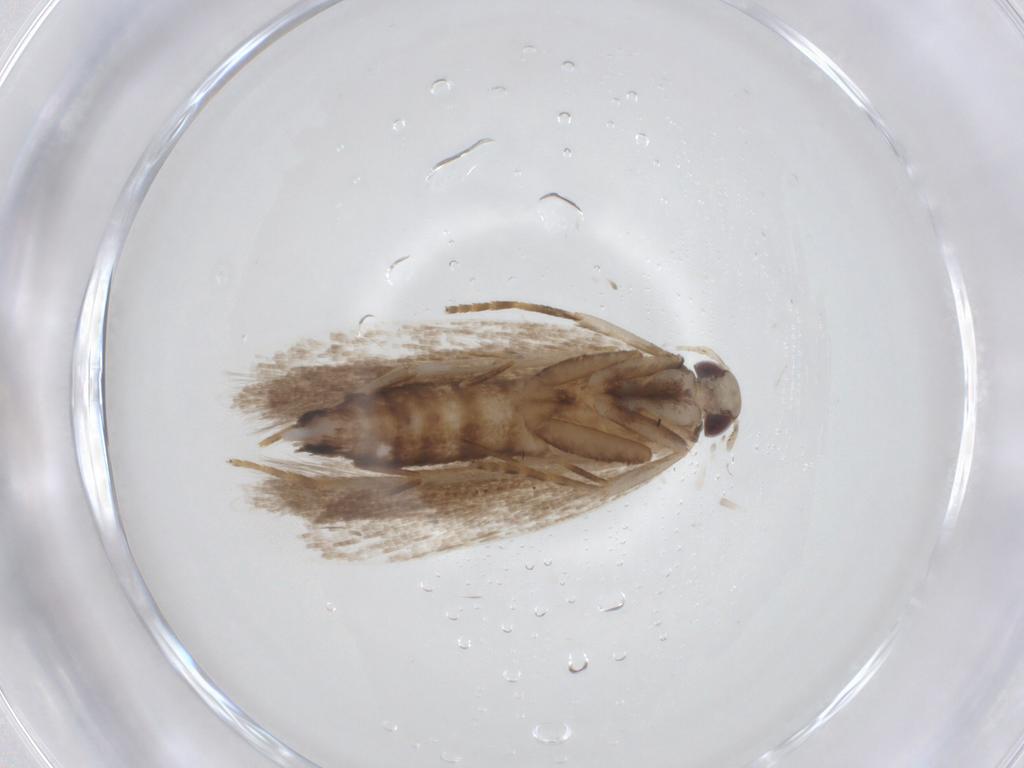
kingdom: Animalia
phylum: Arthropoda
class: Insecta
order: Lepidoptera
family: Gelechiidae
